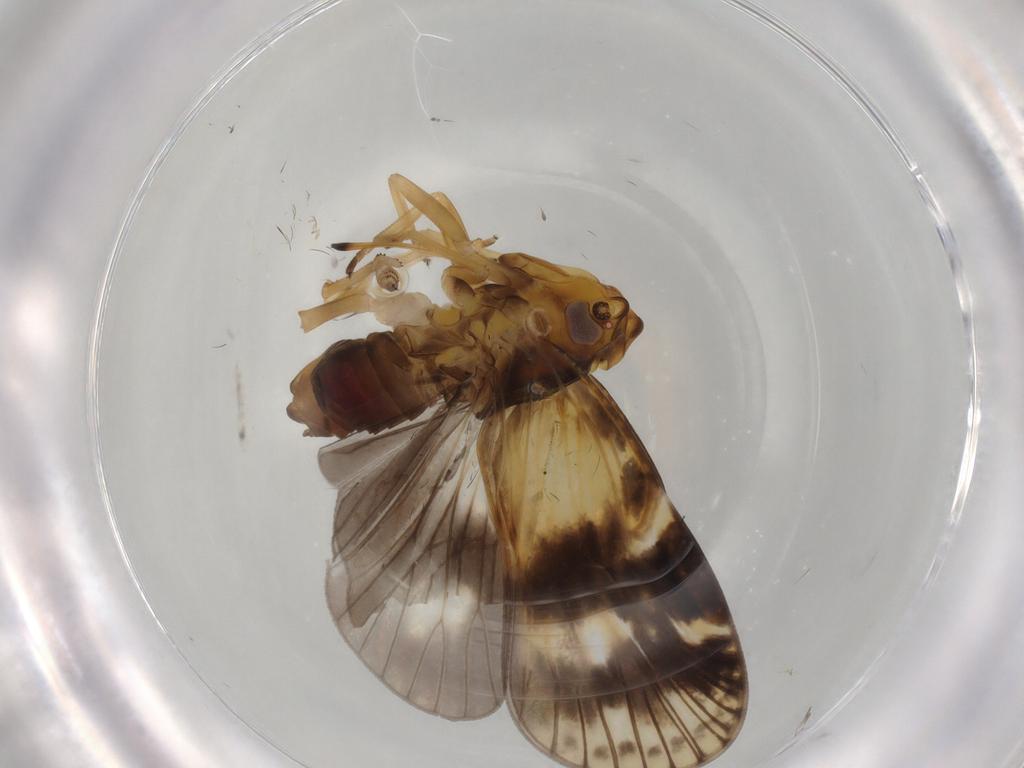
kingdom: Animalia
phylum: Arthropoda
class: Insecta
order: Hemiptera
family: Cixiidae
